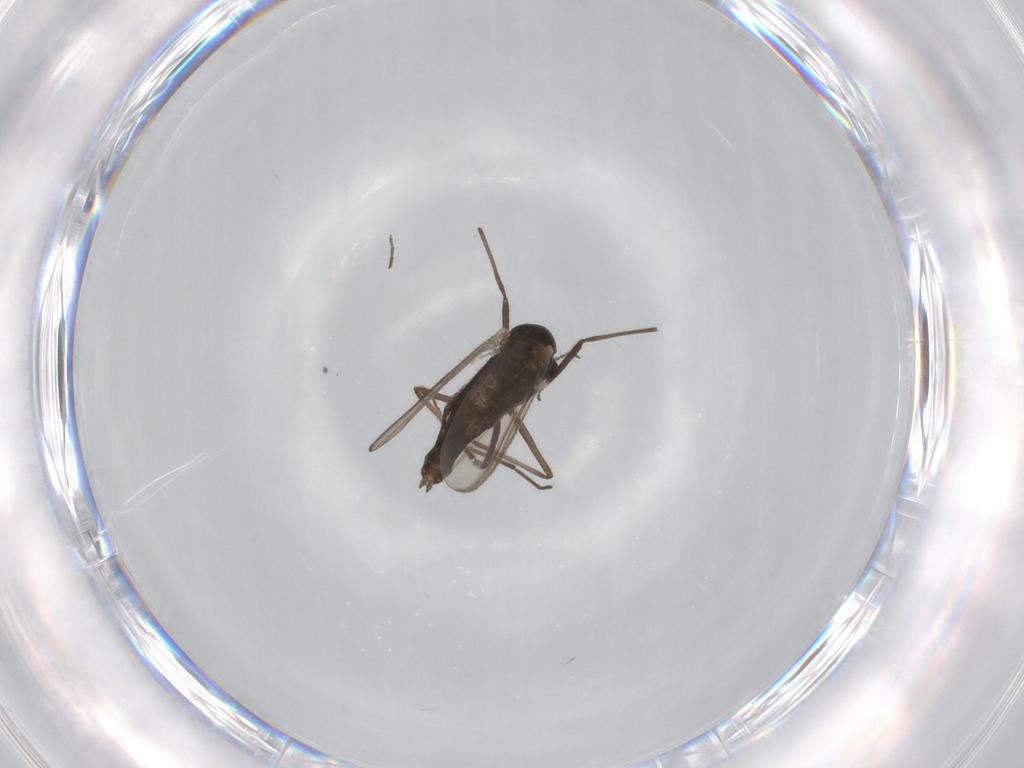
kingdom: Animalia
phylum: Arthropoda
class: Insecta
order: Diptera
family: Chironomidae
